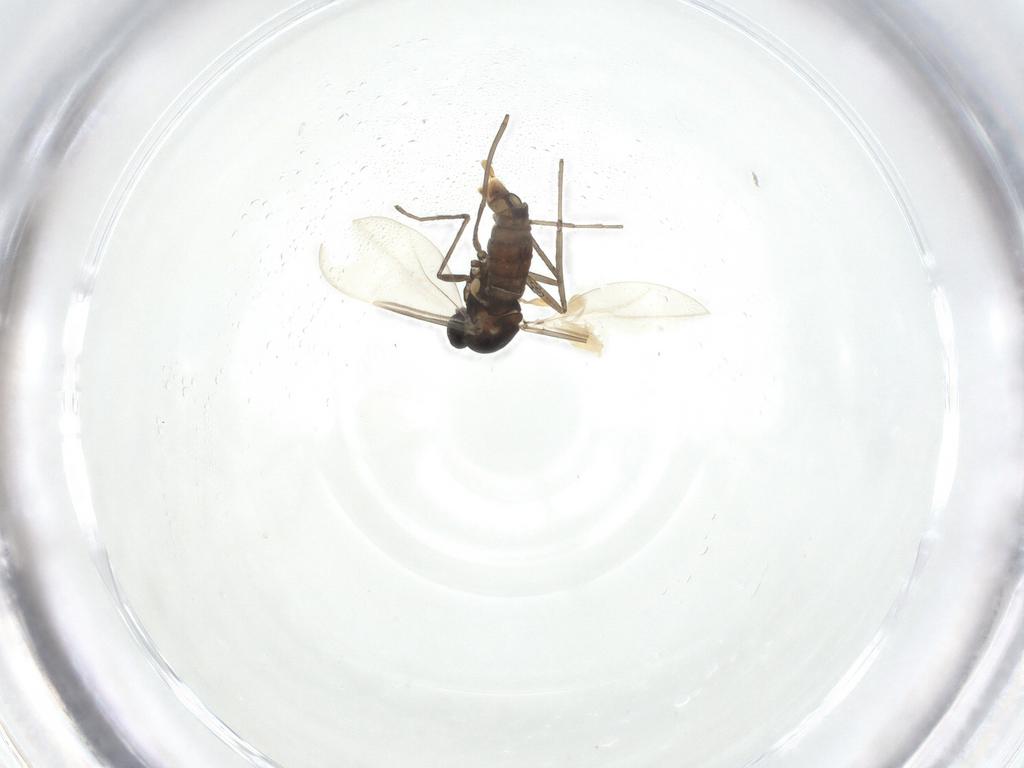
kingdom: Animalia
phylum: Arthropoda
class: Insecta
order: Diptera
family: Cecidomyiidae
